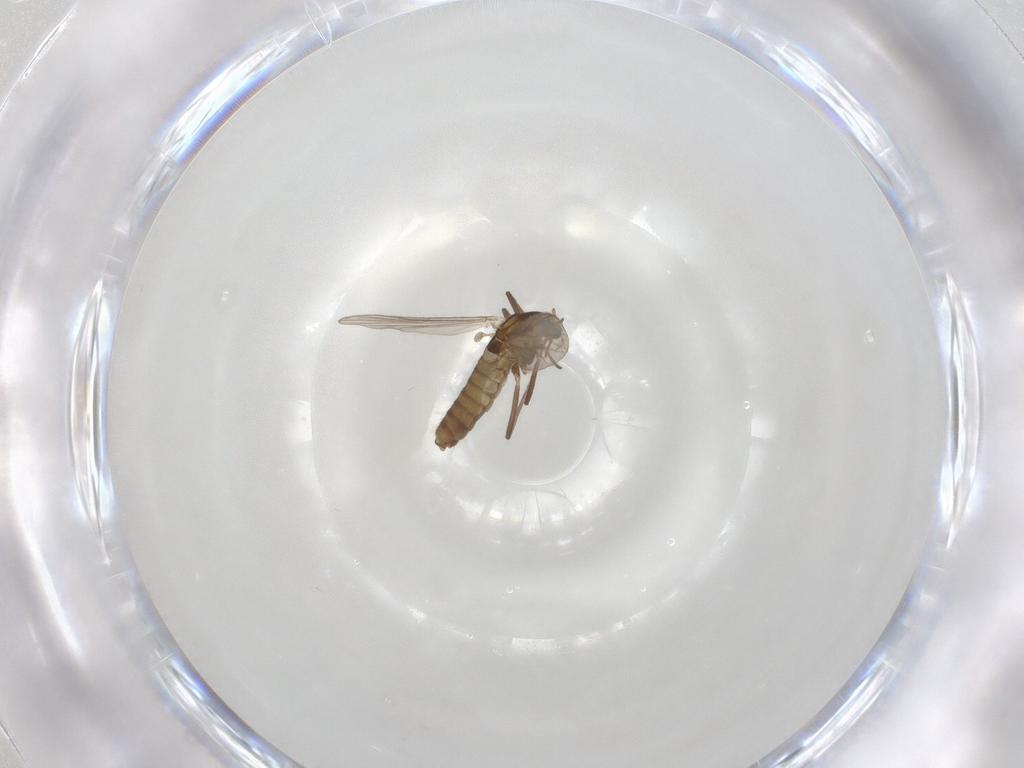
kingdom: Animalia
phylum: Arthropoda
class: Insecta
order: Diptera
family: Chironomidae
